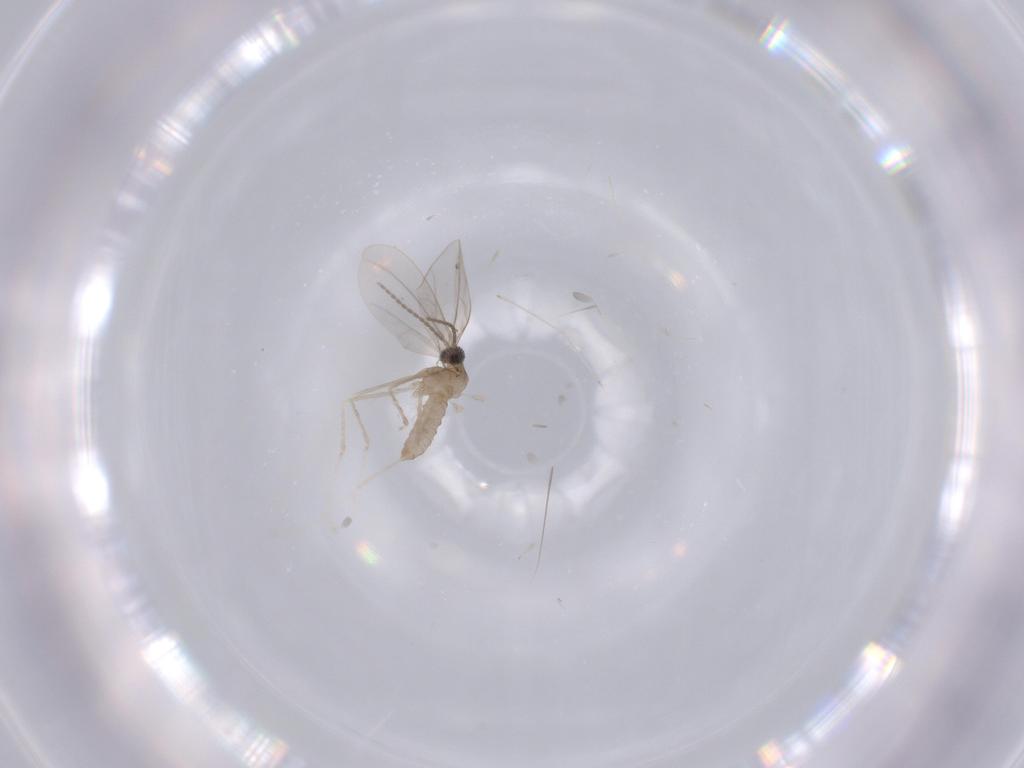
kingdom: Animalia
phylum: Arthropoda
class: Insecta
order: Diptera
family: Cecidomyiidae
